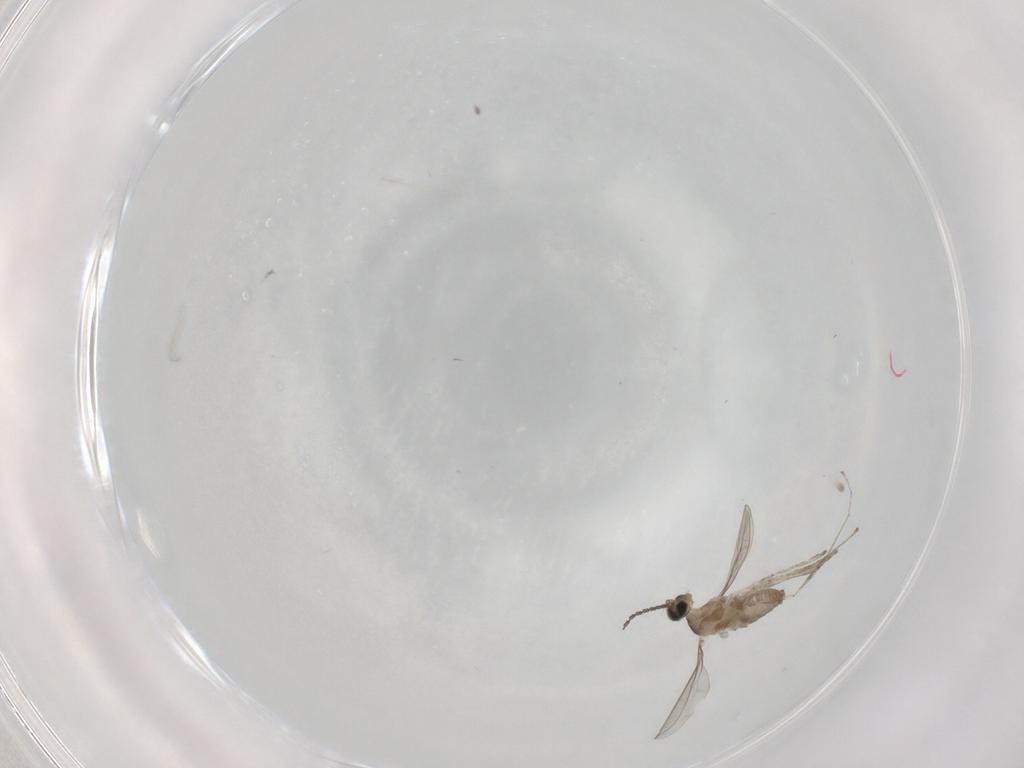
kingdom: Animalia
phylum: Arthropoda
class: Insecta
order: Diptera
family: Cecidomyiidae
